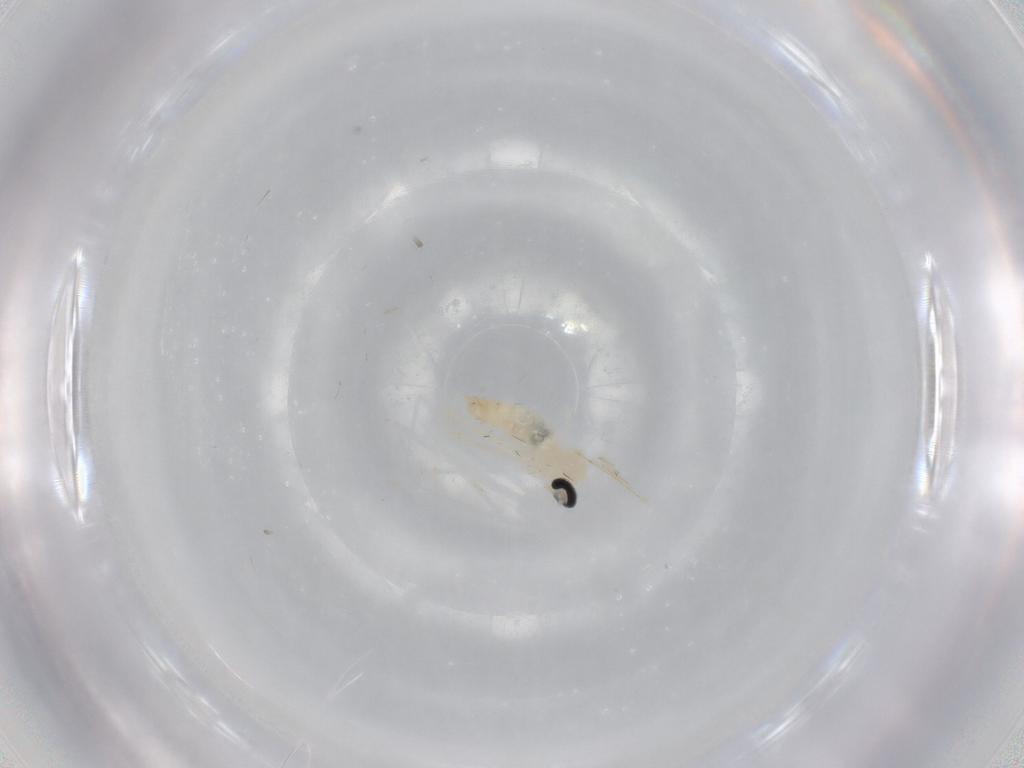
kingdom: Animalia
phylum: Arthropoda
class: Insecta
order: Diptera
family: Cecidomyiidae
